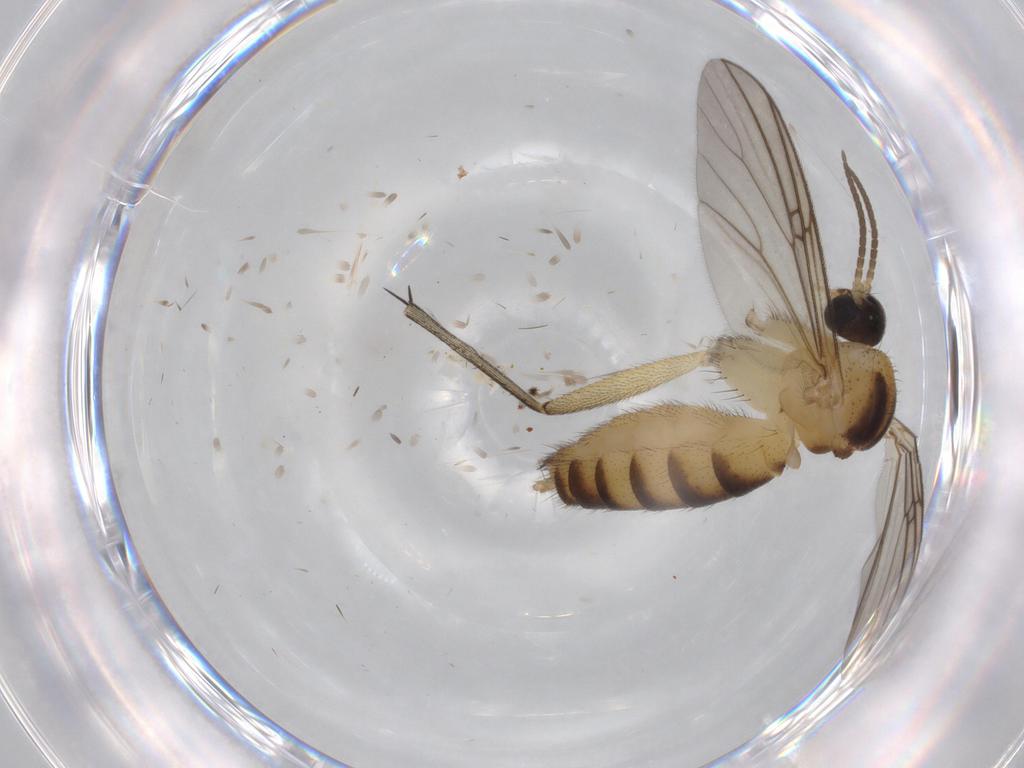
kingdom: Animalia
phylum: Arthropoda
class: Insecta
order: Diptera
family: Mycetophilidae
